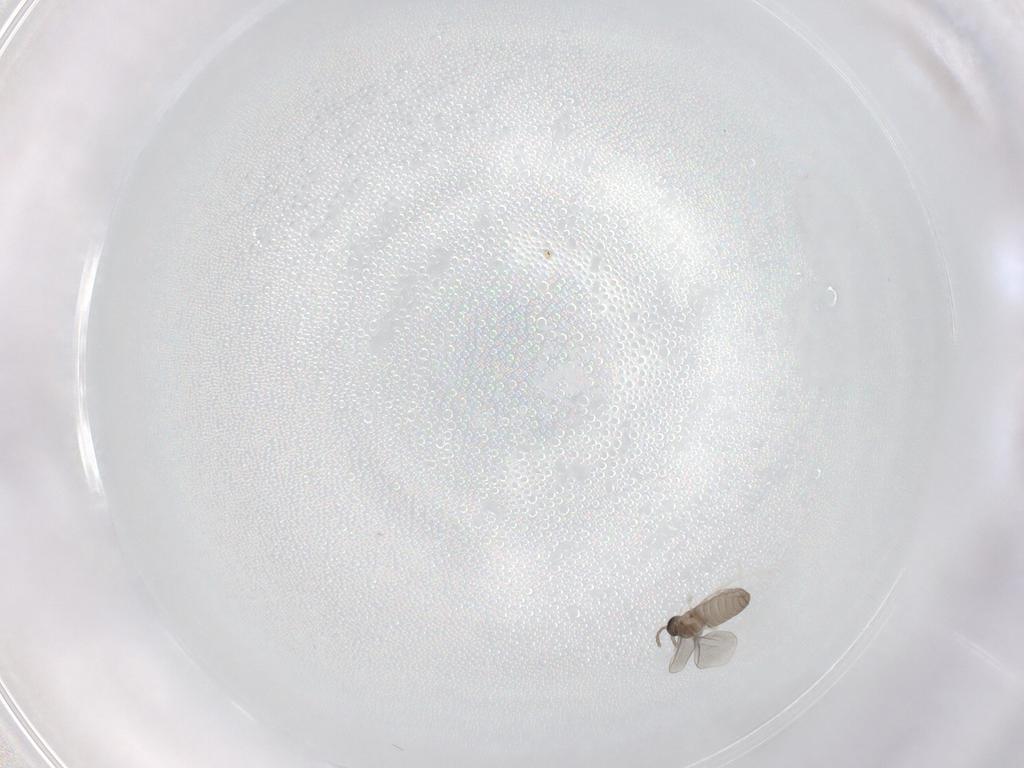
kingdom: Animalia
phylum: Arthropoda
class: Insecta
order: Diptera
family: Cecidomyiidae
